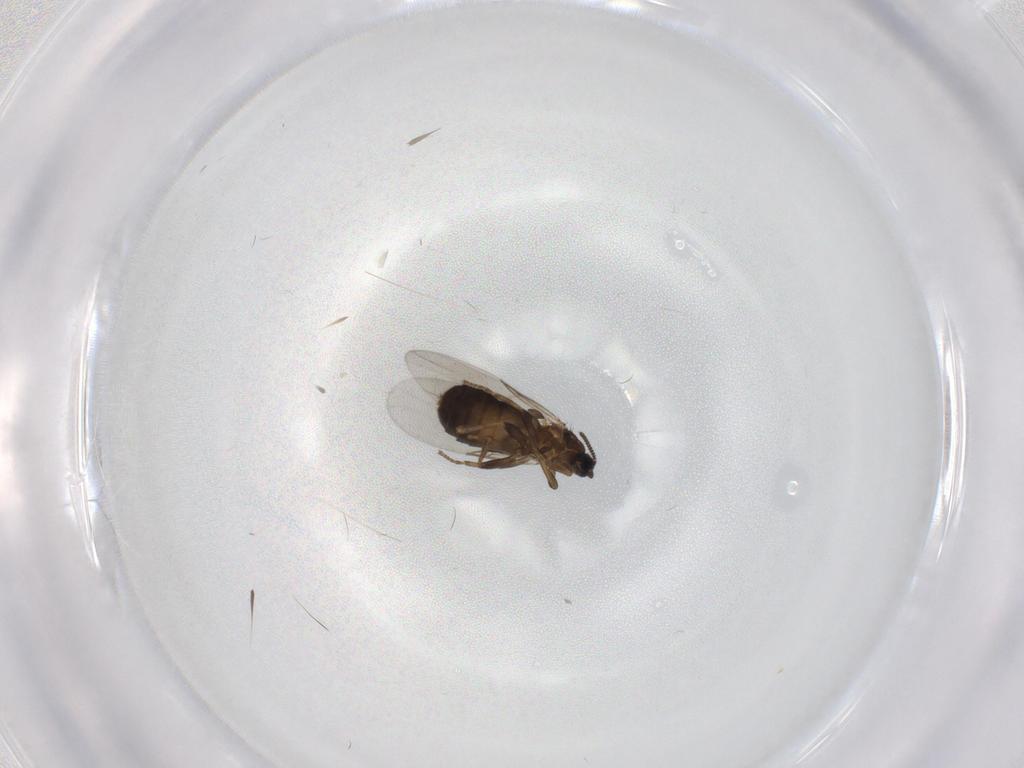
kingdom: Animalia
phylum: Arthropoda
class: Insecta
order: Diptera
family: Scatopsidae
